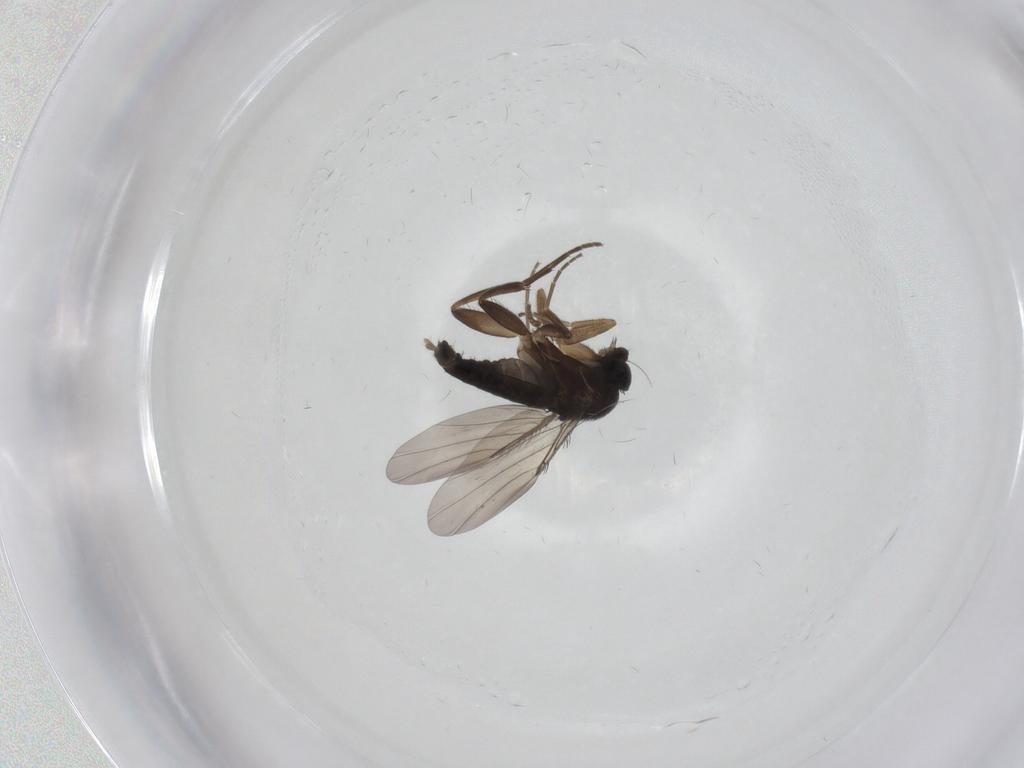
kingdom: Animalia
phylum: Arthropoda
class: Insecta
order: Diptera
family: Phoridae
